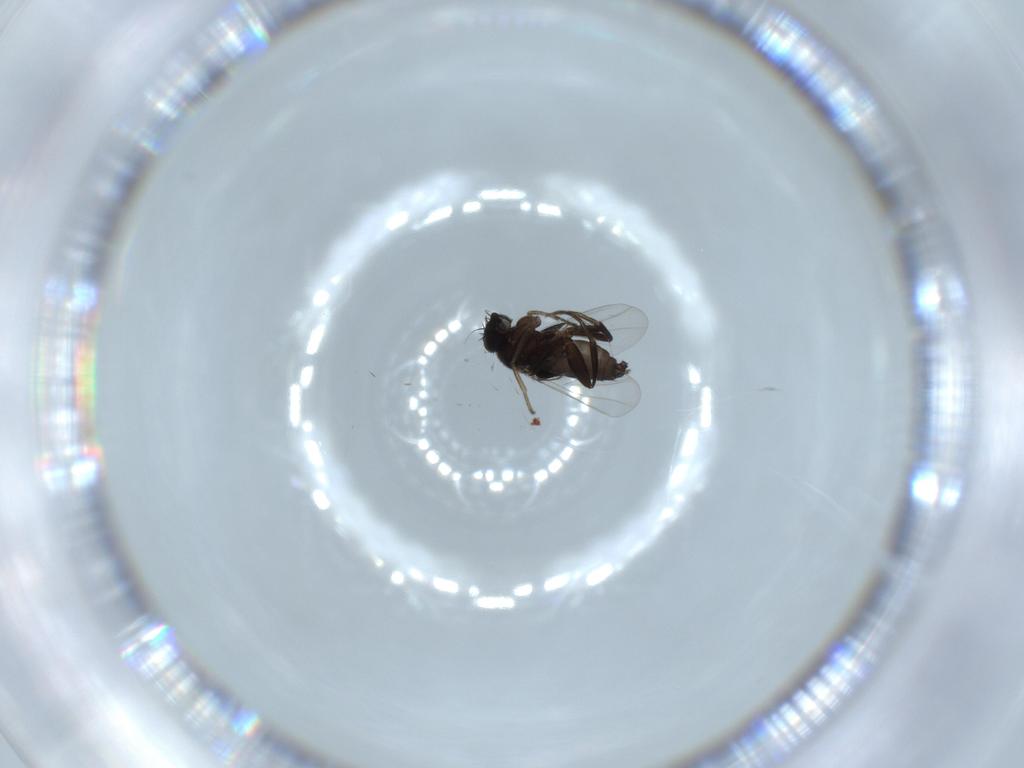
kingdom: Animalia
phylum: Arthropoda
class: Insecta
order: Diptera
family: Phoridae
